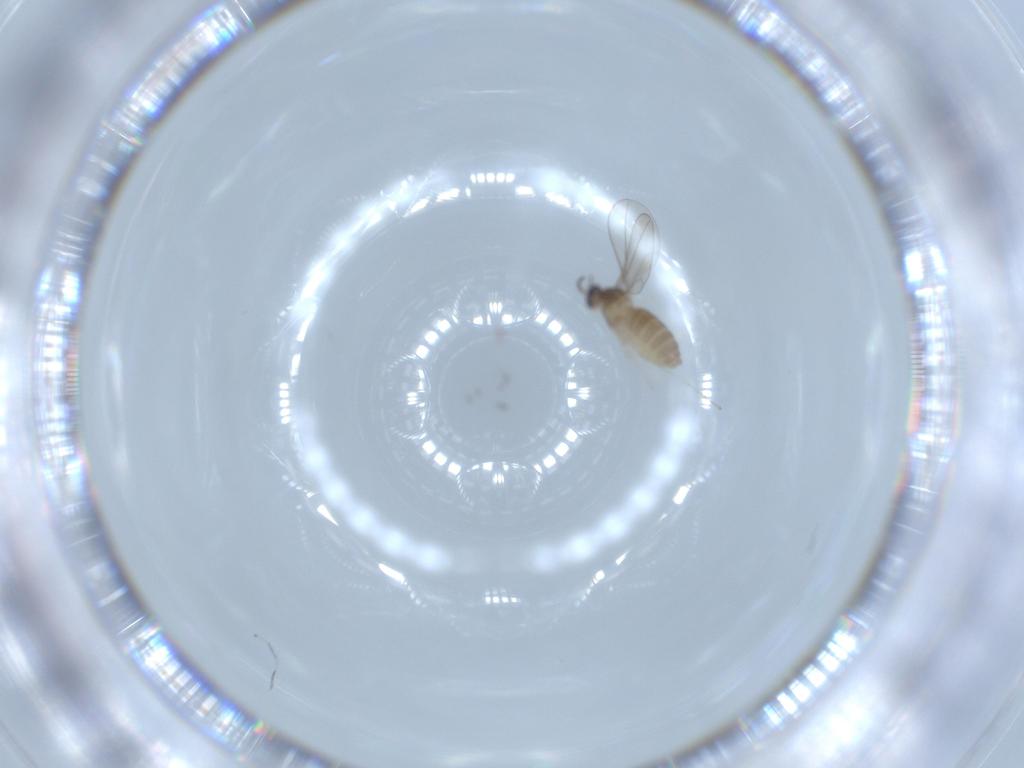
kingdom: Animalia
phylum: Arthropoda
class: Insecta
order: Diptera
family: Cecidomyiidae
